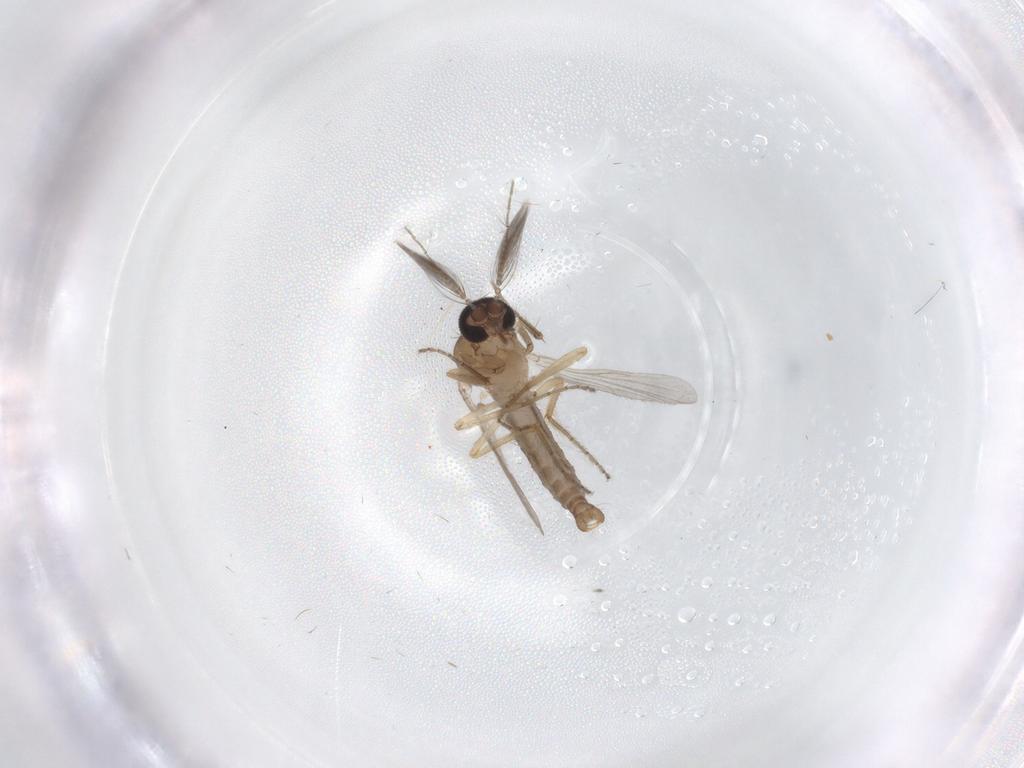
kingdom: Animalia
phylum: Arthropoda
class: Insecta
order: Diptera
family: Ceratopogonidae
